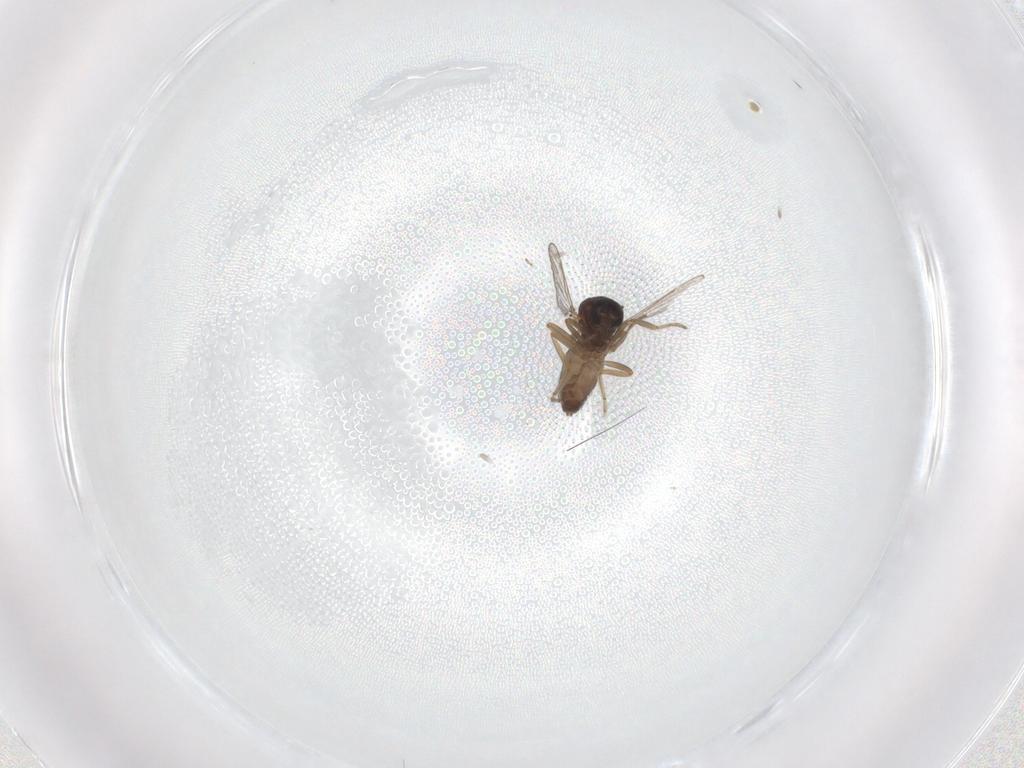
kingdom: Animalia
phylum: Arthropoda
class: Insecta
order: Diptera
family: Ceratopogonidae
